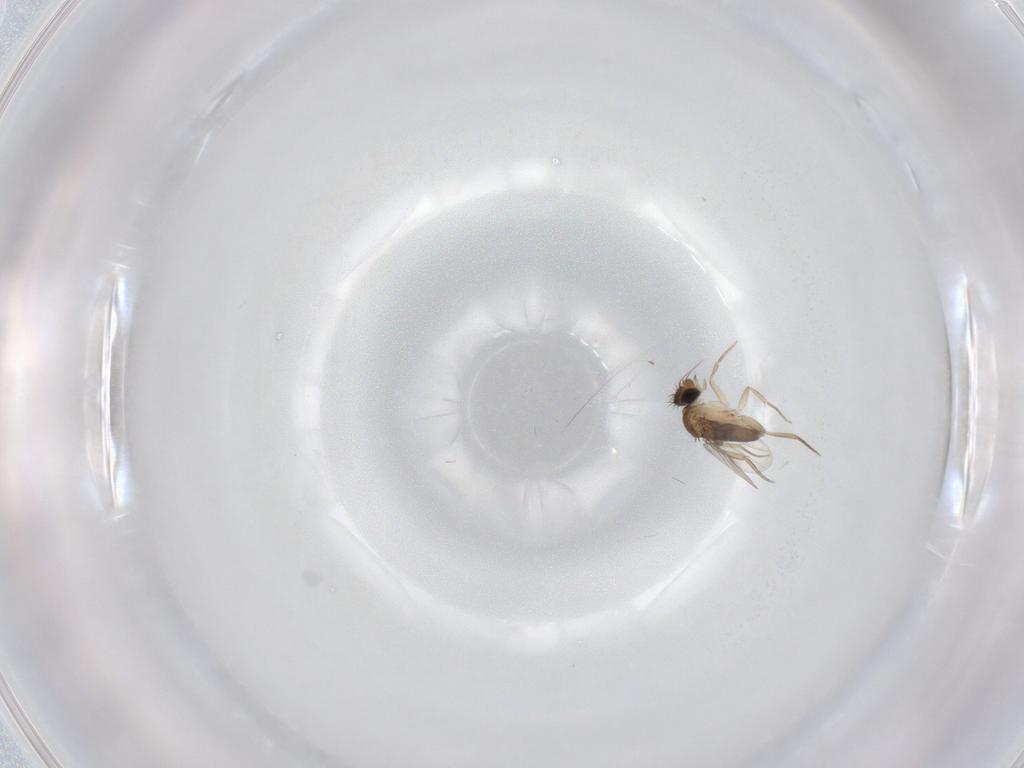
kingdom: Animalia
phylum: Arthropoda
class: Insecta
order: Diptera
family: Phoridae
